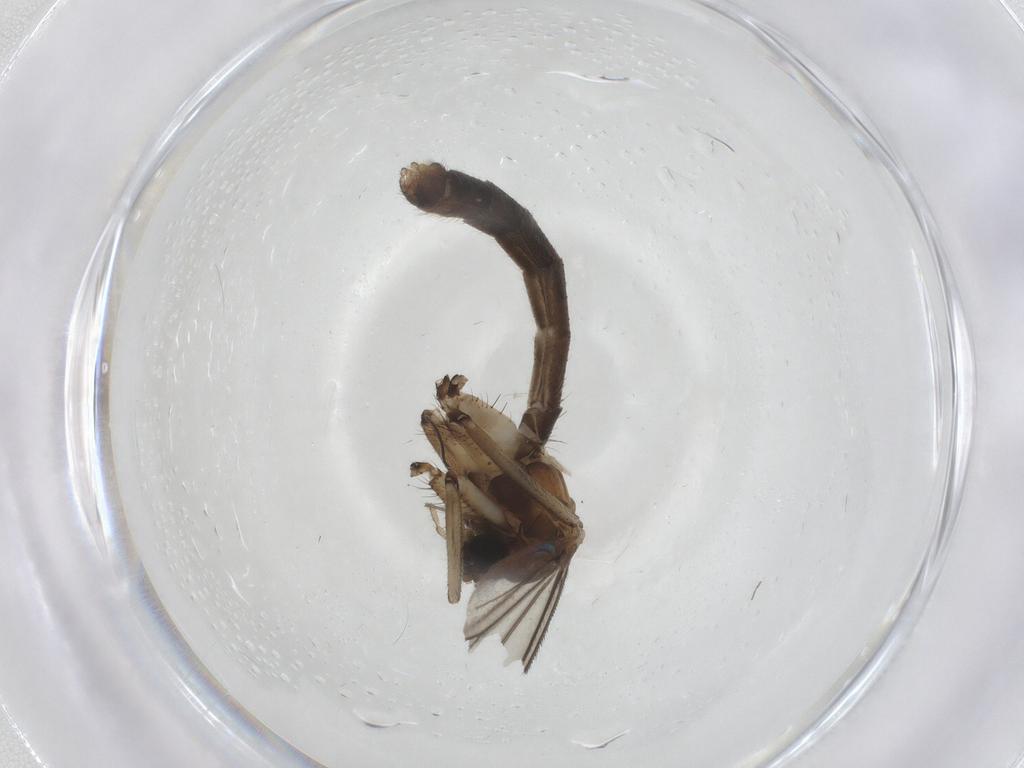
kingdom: Animalia
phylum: Arthropoda
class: Insecta
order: Diptera
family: Sciaridae
